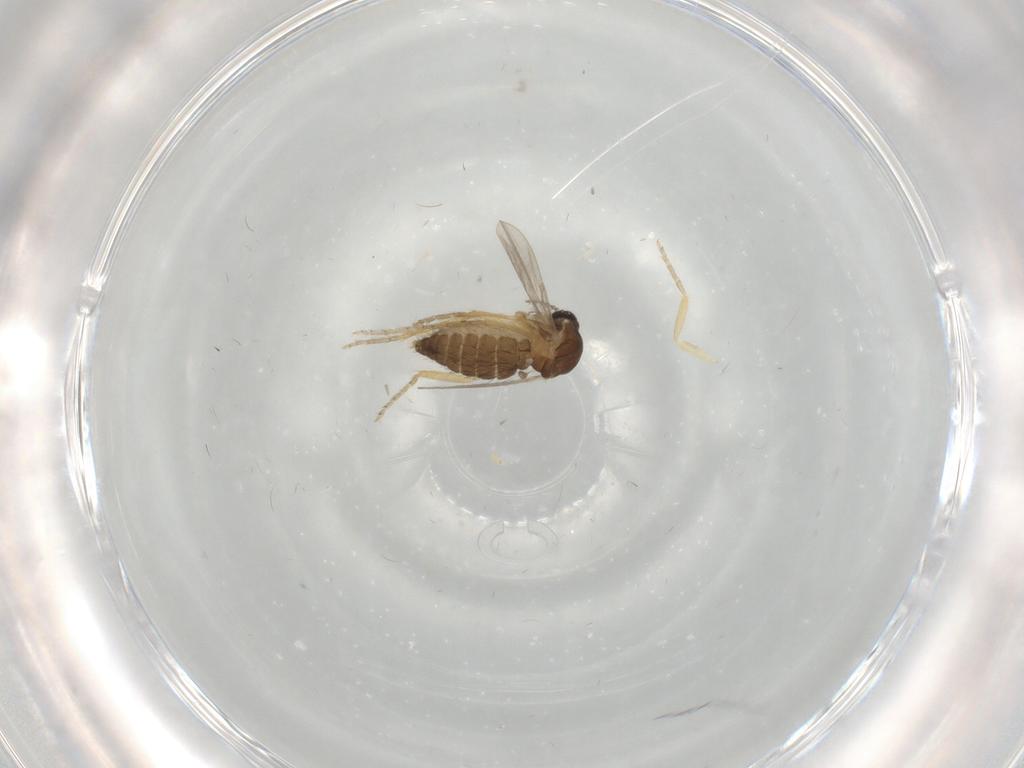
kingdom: Animalia
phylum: Arthropoda
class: Insecta
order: Diptera
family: Ceratopogonidae
